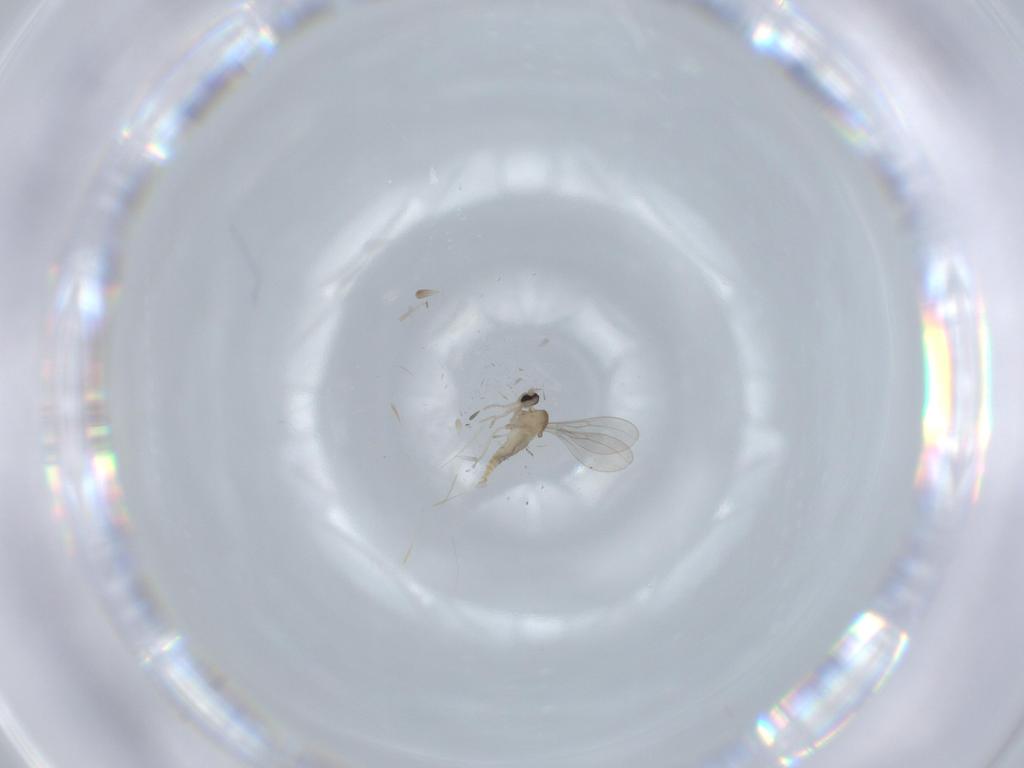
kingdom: Animalia
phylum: Arthropoda
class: Insecta
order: Diptera
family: Cecidomyiidae
